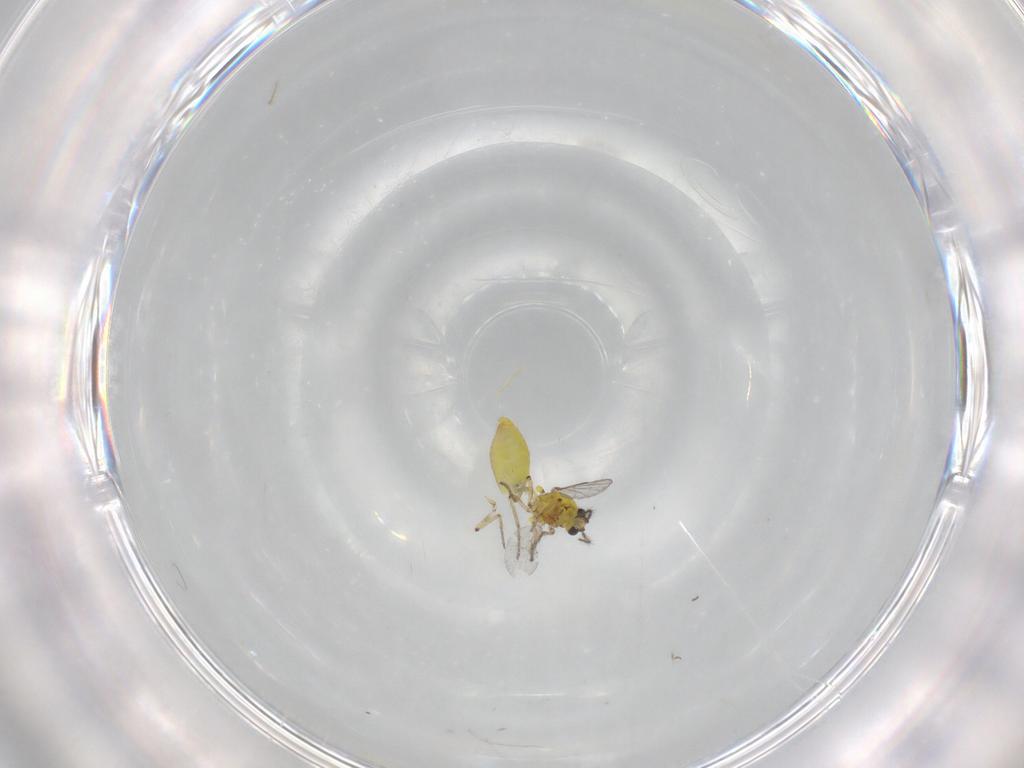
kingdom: Animalia
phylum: Arthropoda
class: Insecta
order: Diptera
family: Ceratopogonidae
